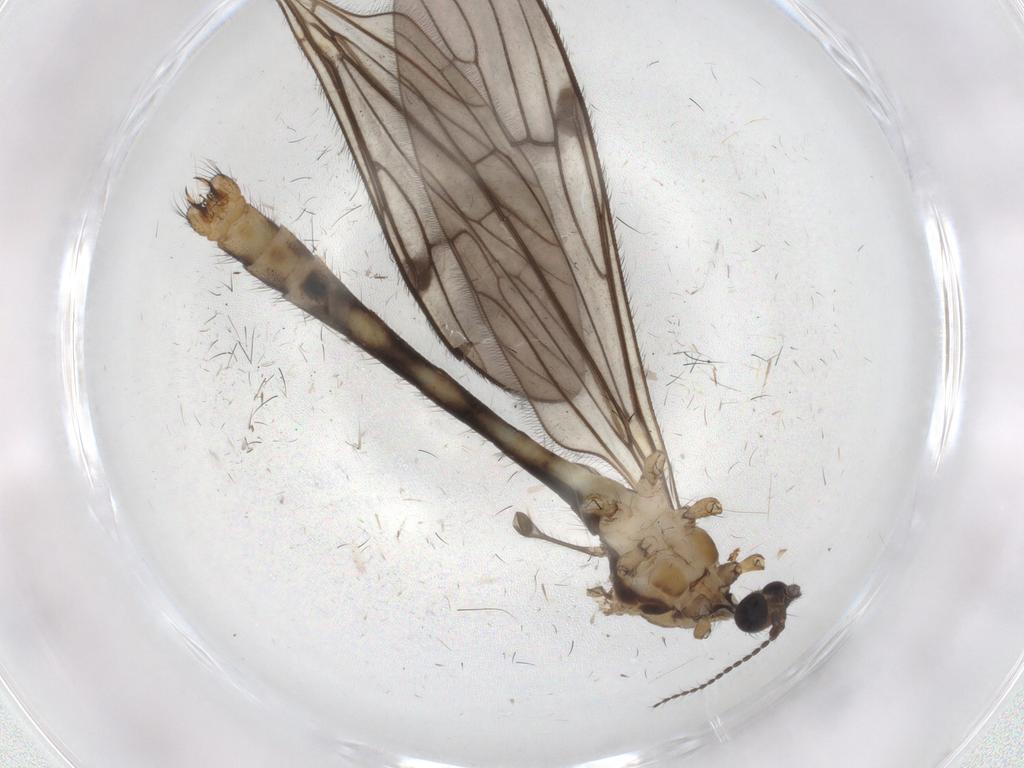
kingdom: Animalia
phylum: Arthropoda
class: Insecta
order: Diptera
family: Limoniidae
